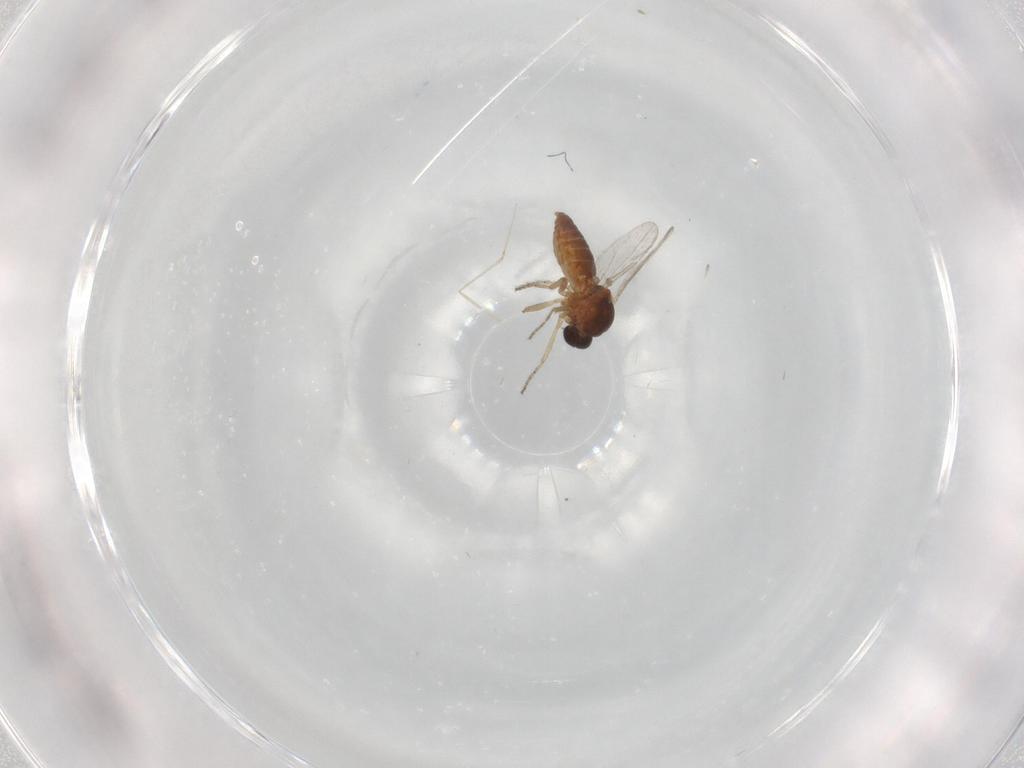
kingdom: Animalia
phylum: Arthropoda
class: Insecta
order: Diptera
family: Ceratopogonidae
